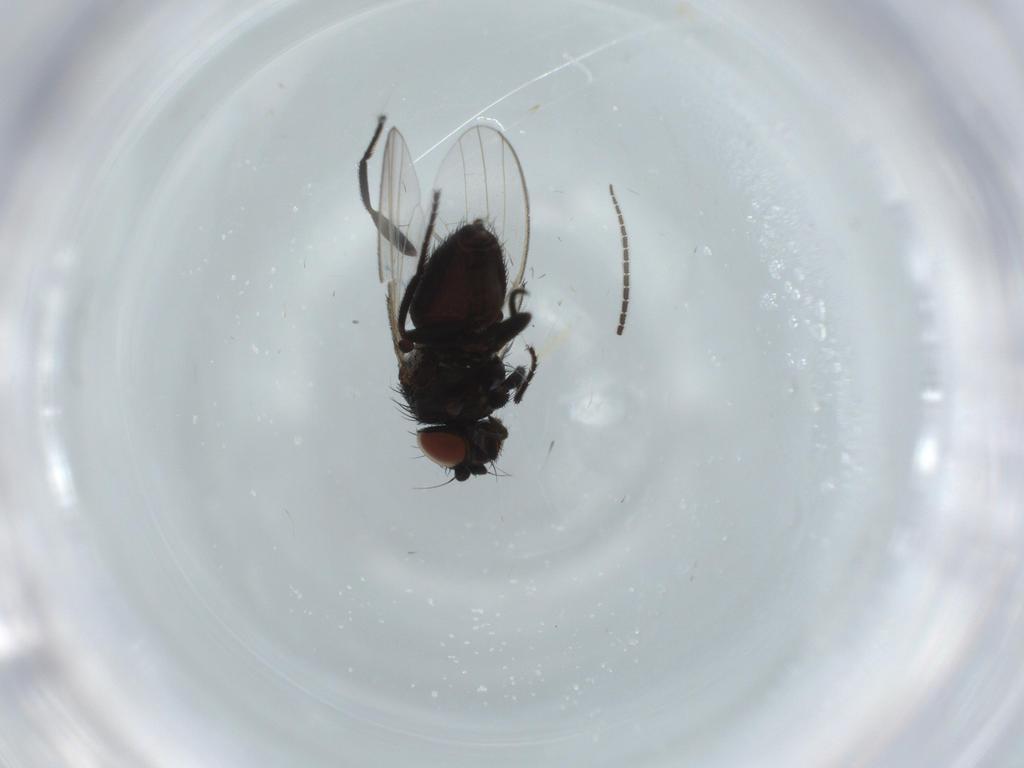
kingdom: Animalia
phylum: Arthropoda
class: Insecta
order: Diptera
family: Sciaridae
